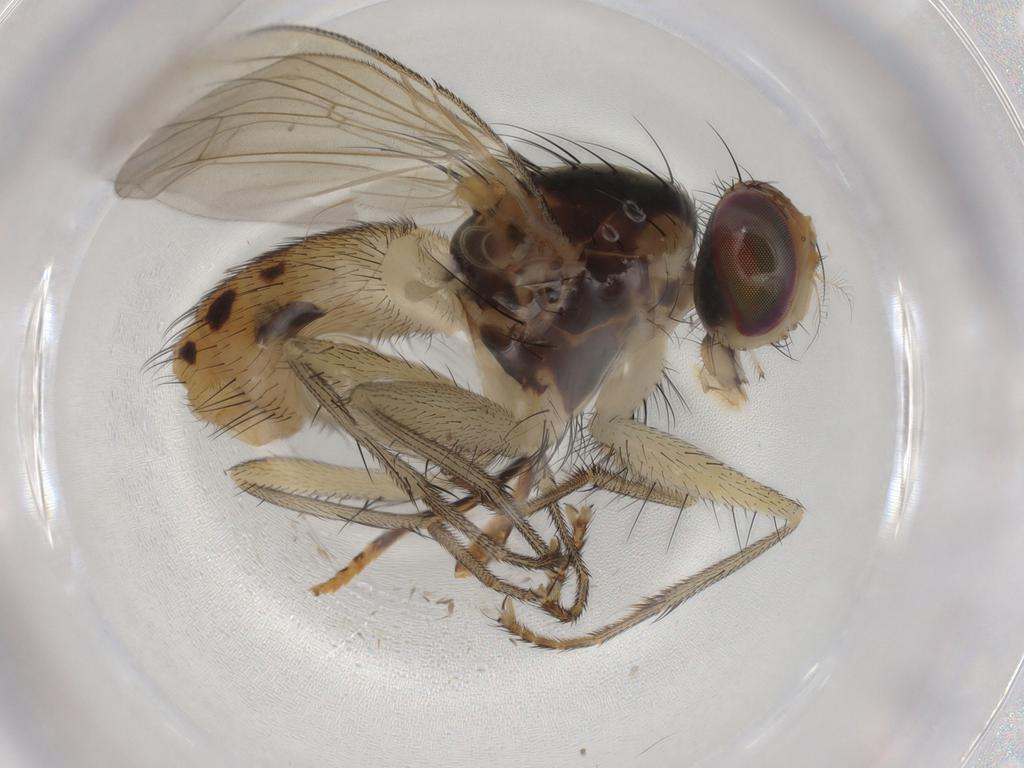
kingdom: Animalia
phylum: Arthropoda
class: Insecta
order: Diptera
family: Muscidae
